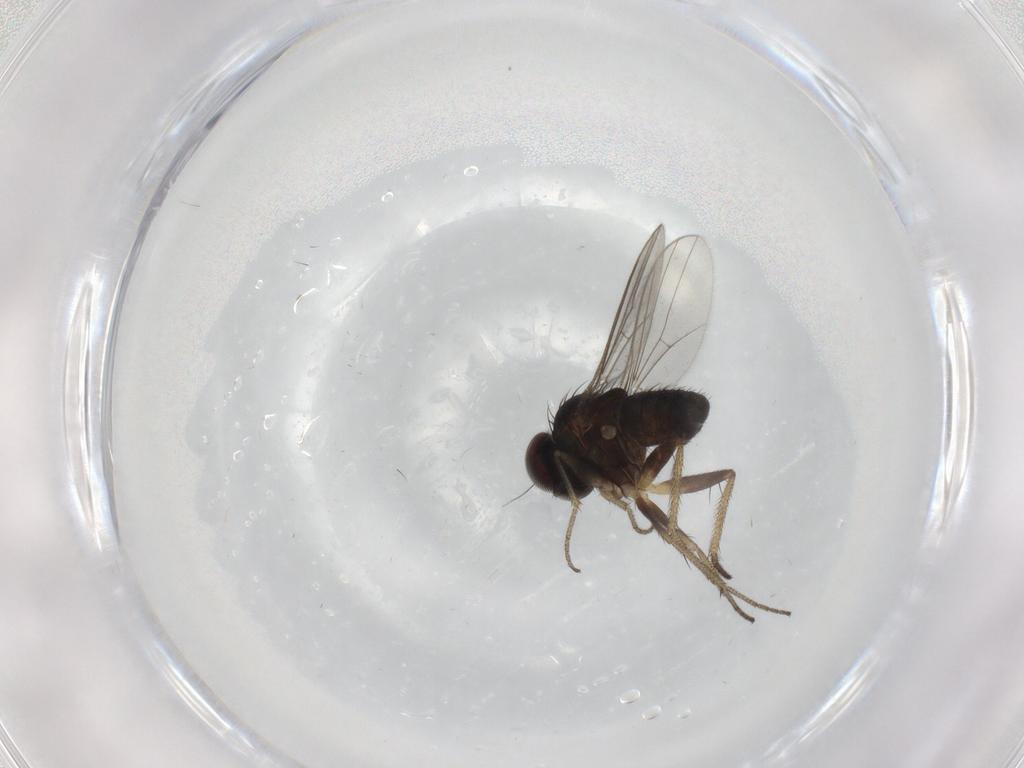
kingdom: Animalia
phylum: Arthropoda
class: Insecta
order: Diptera
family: Dolichopodidae
